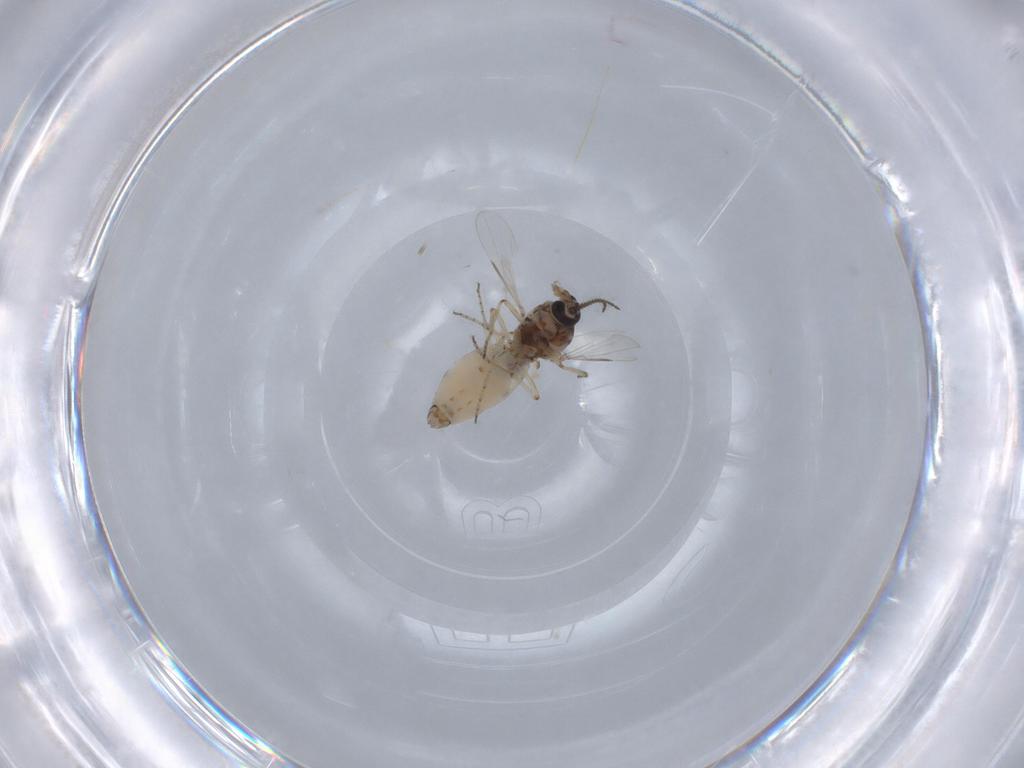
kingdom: Animalia
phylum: Arthropoda
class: Insecta
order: Diptera
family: Ceratopogonidae
